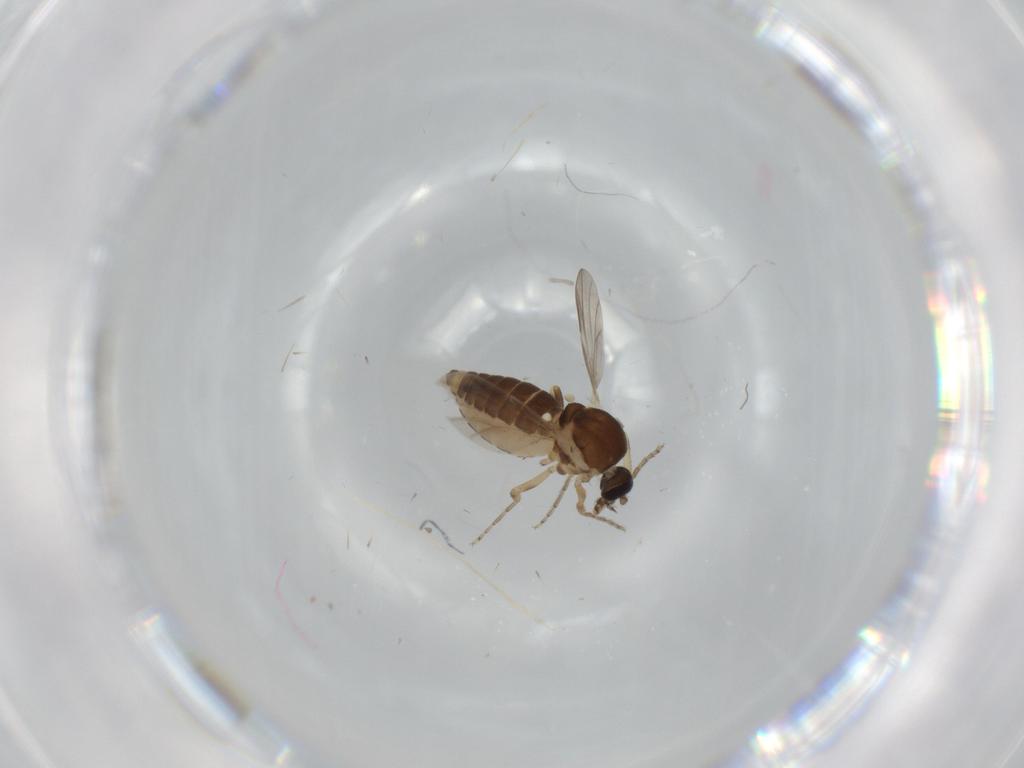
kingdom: Animalia
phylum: Arthropoda
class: Insecta
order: Diptera
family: Ceratopogonidae
